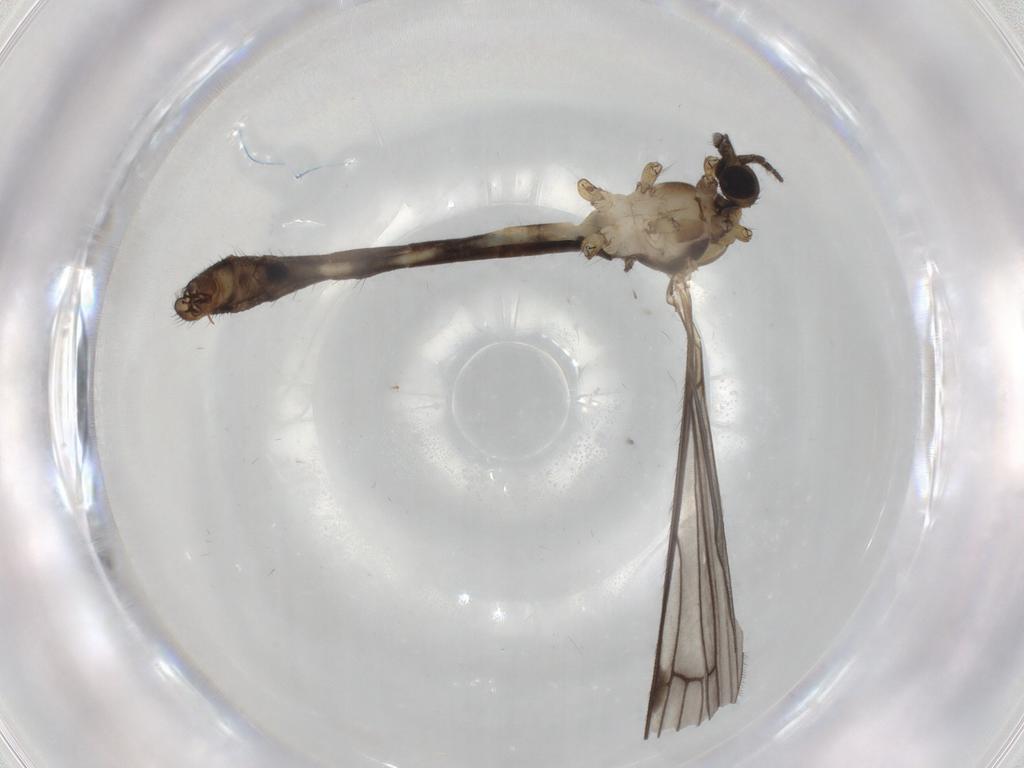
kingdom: Animalia
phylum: Arthropoda
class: Insecta
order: Diptera
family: Limoniidae
